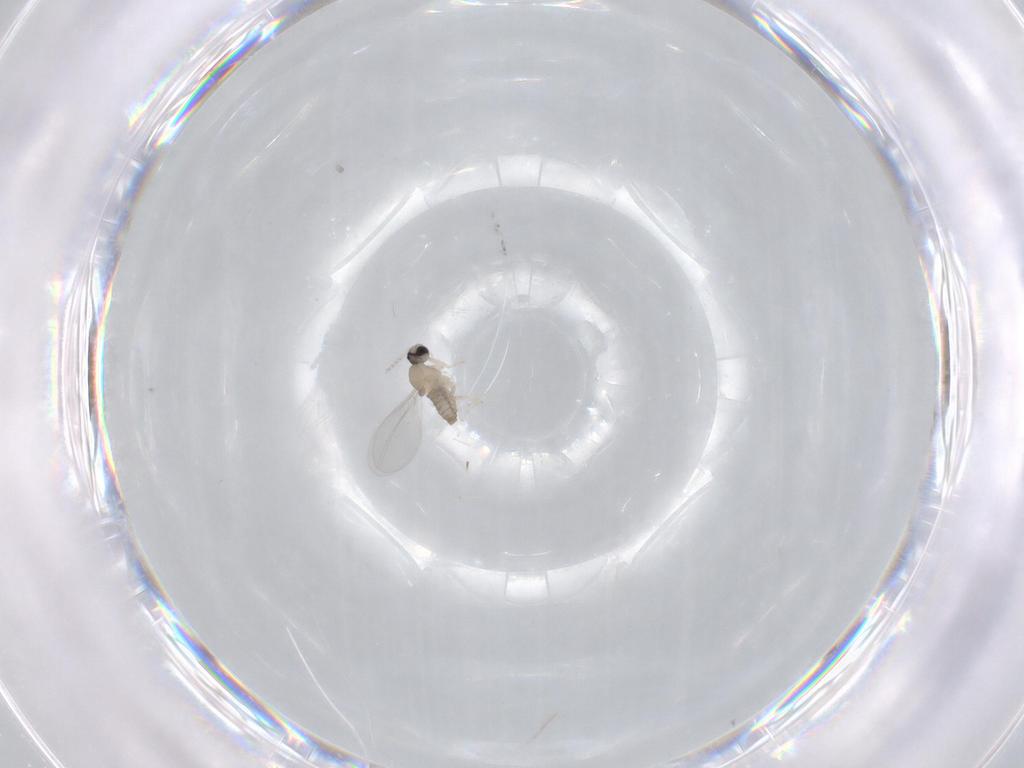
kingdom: Animalia
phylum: Arthropoda
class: Insecta
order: Diptera
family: Cecidomyiidae
